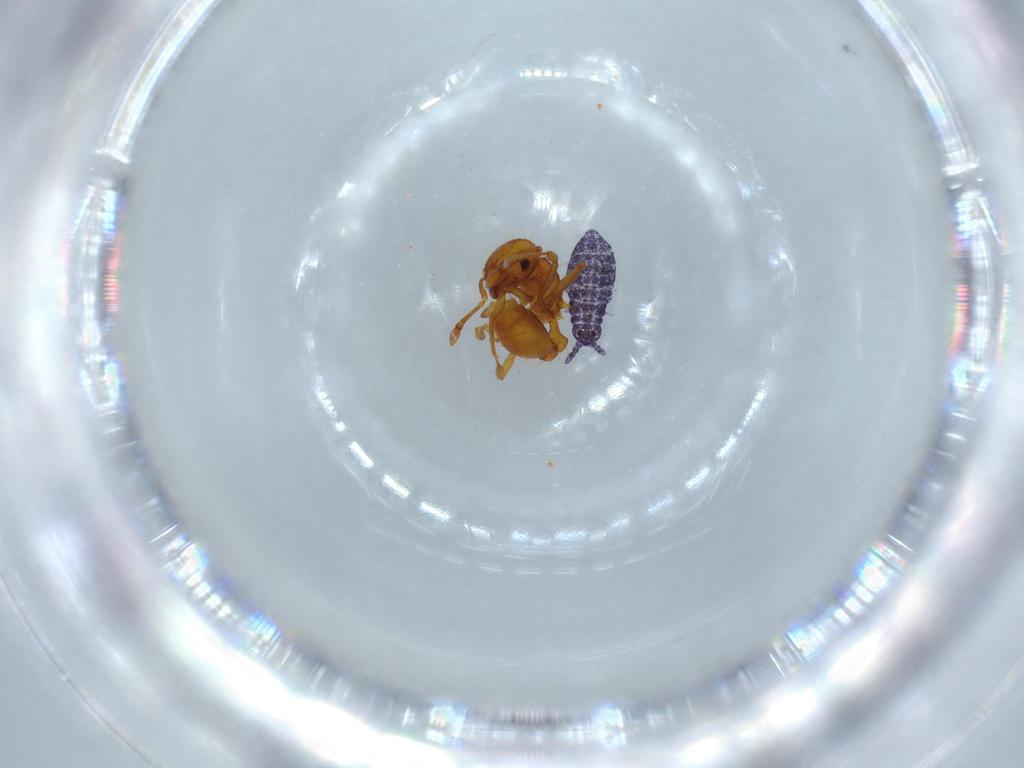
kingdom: Animalia
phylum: Arthropoda
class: Insecta
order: Hymenoptera
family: Formicidae
